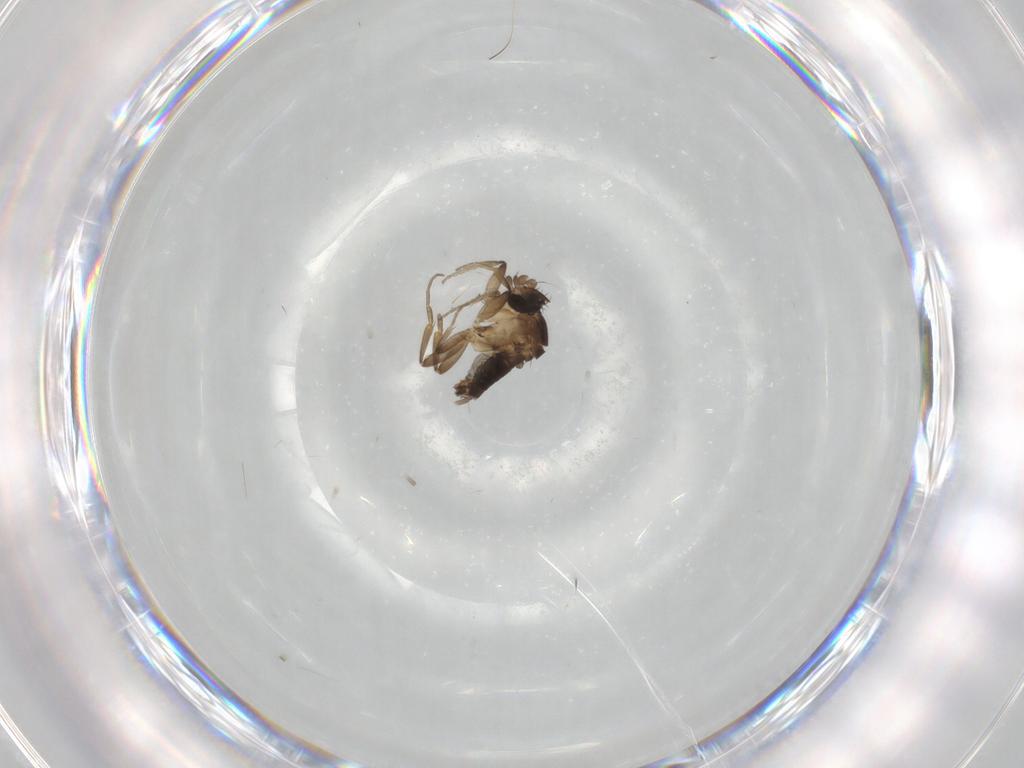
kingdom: Animalia
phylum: Arthropoda
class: Insecta
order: Diptera
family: Phoridae
